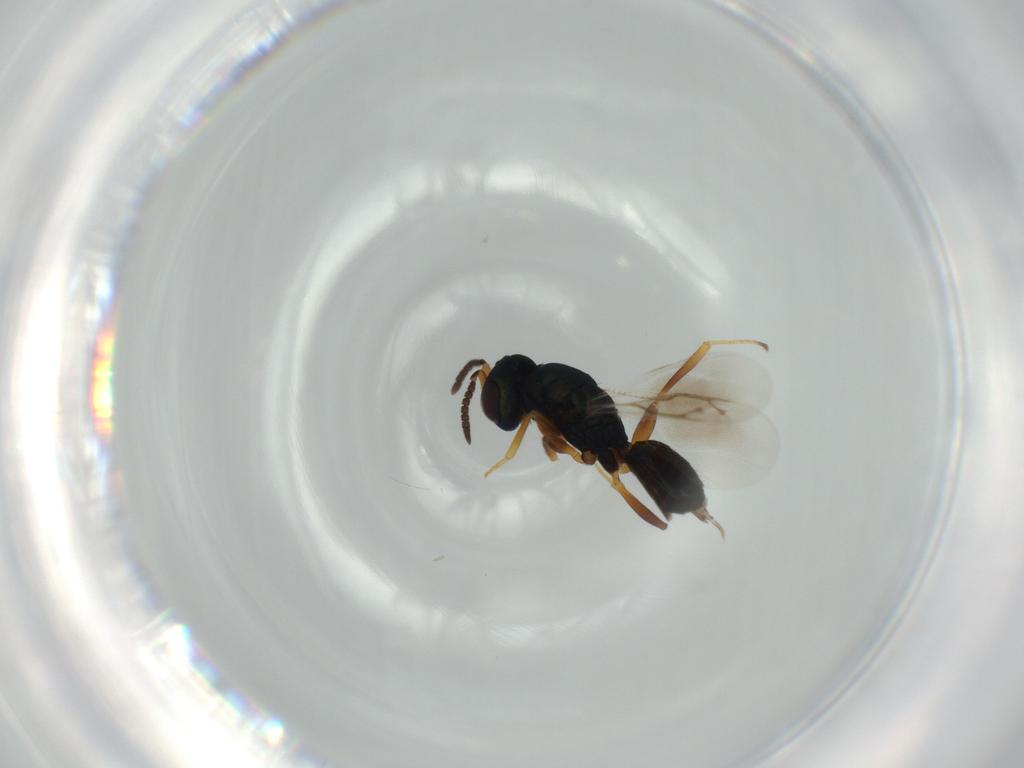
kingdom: Animalia
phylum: Arthropoda
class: Insecta
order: Hymenoptera
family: Pteromalidae
